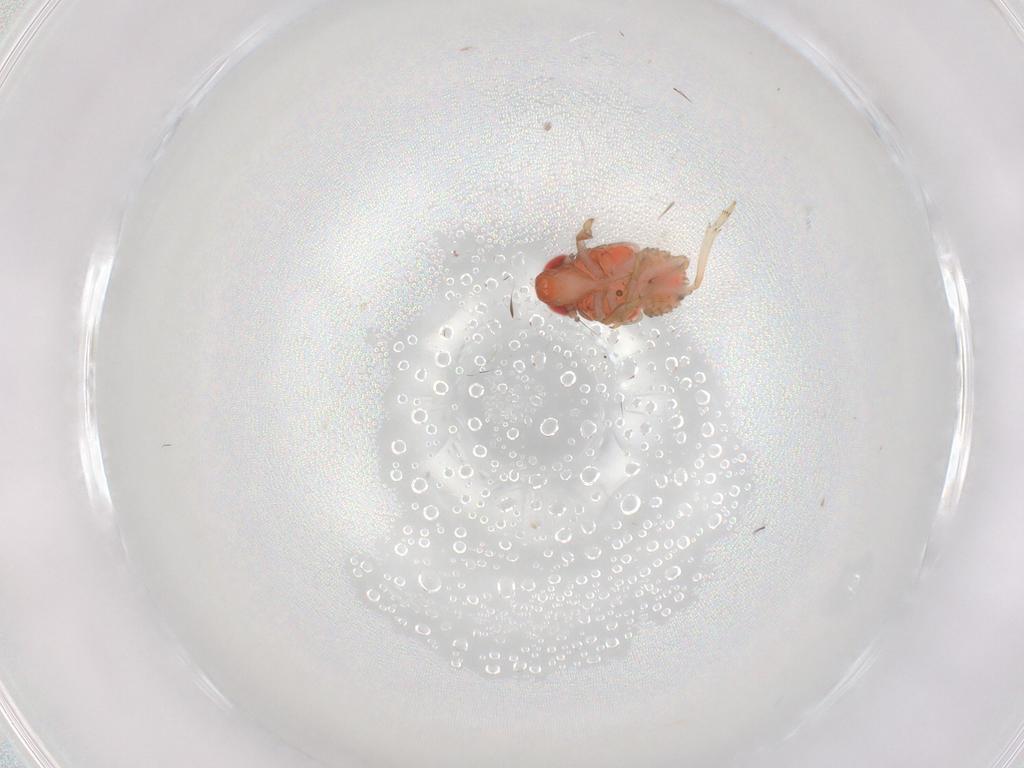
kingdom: Animalia
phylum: Arthropoda
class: Insecta
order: Hemiptera
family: Issidae
